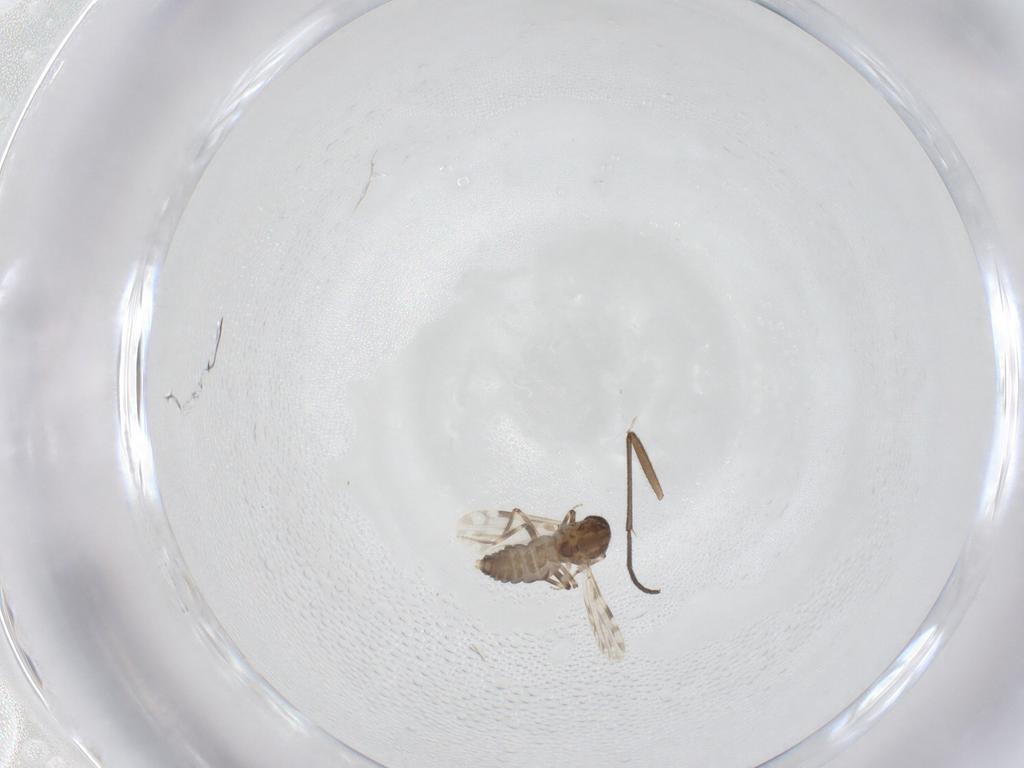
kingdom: Animalia
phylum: Arthropoda
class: Insecta
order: Diptera
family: Sciaridae
